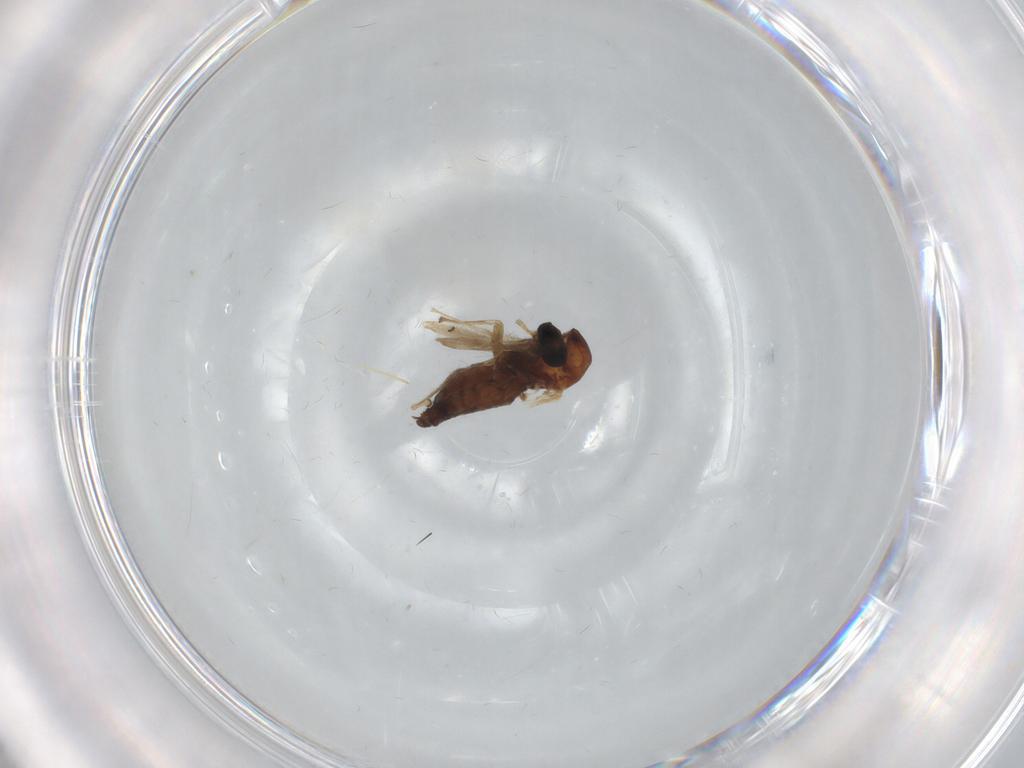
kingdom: Animalia
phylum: Arthropoda
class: Insecta
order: Diptera
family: Chironomidae
